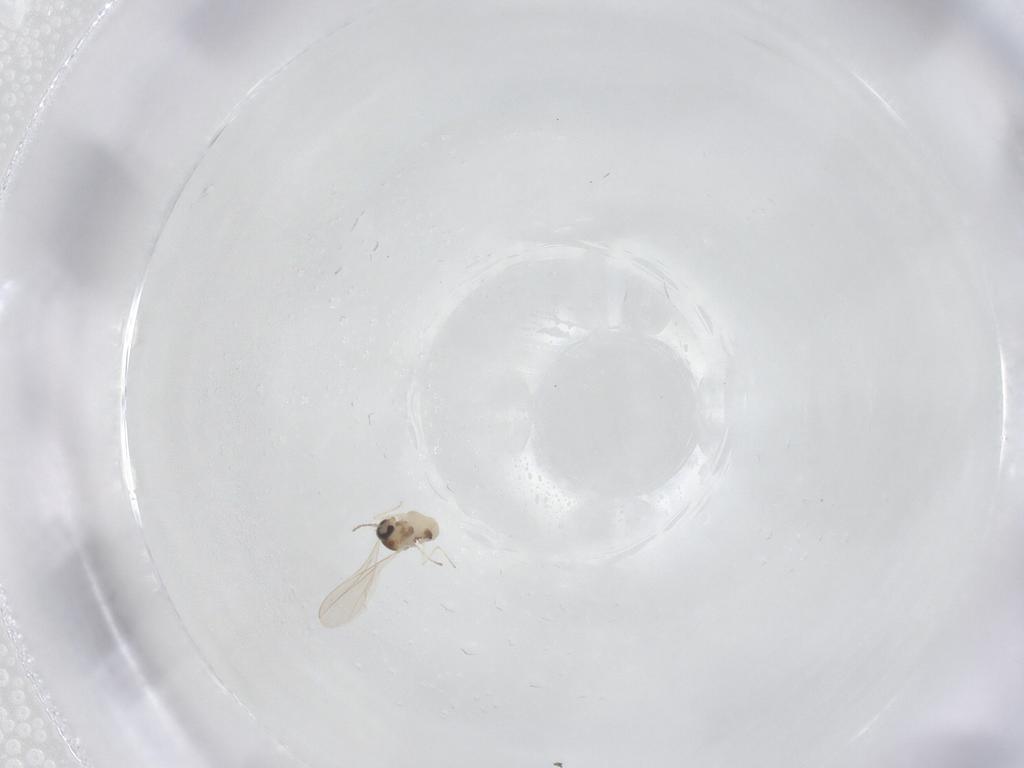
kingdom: Animalia
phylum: Arthropoda
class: Insecta
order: Diptera
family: Cecidomyiidae
